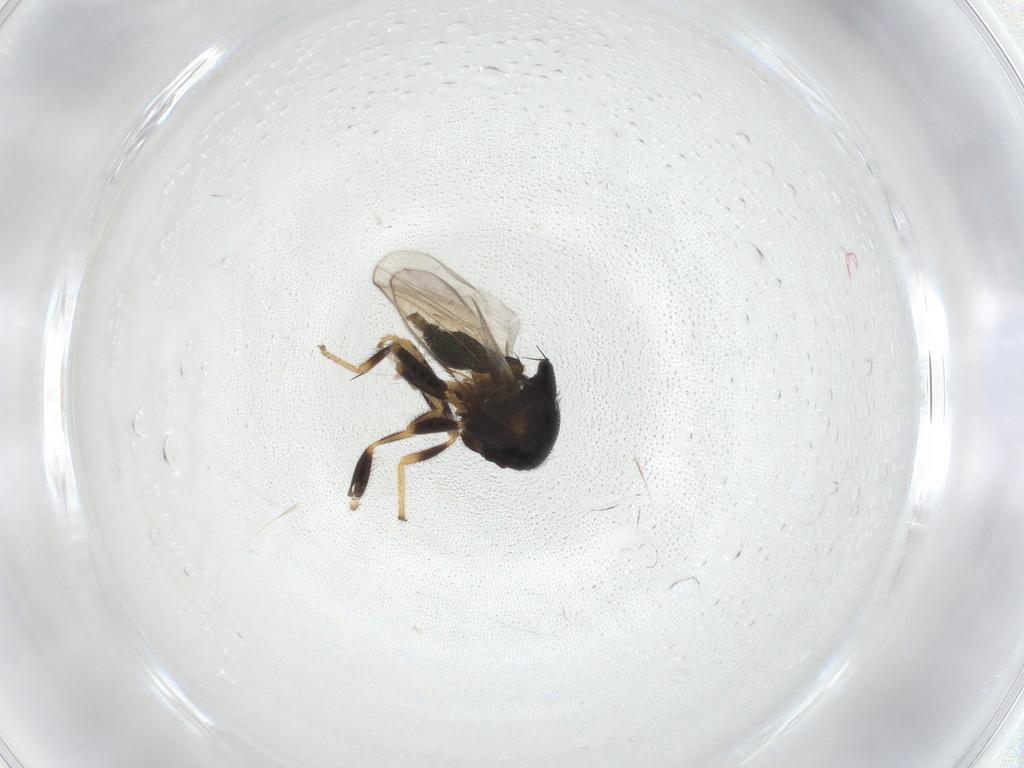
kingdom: Animalia
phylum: Arthropoda
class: Insecta
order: Diptera
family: Chloropidae
